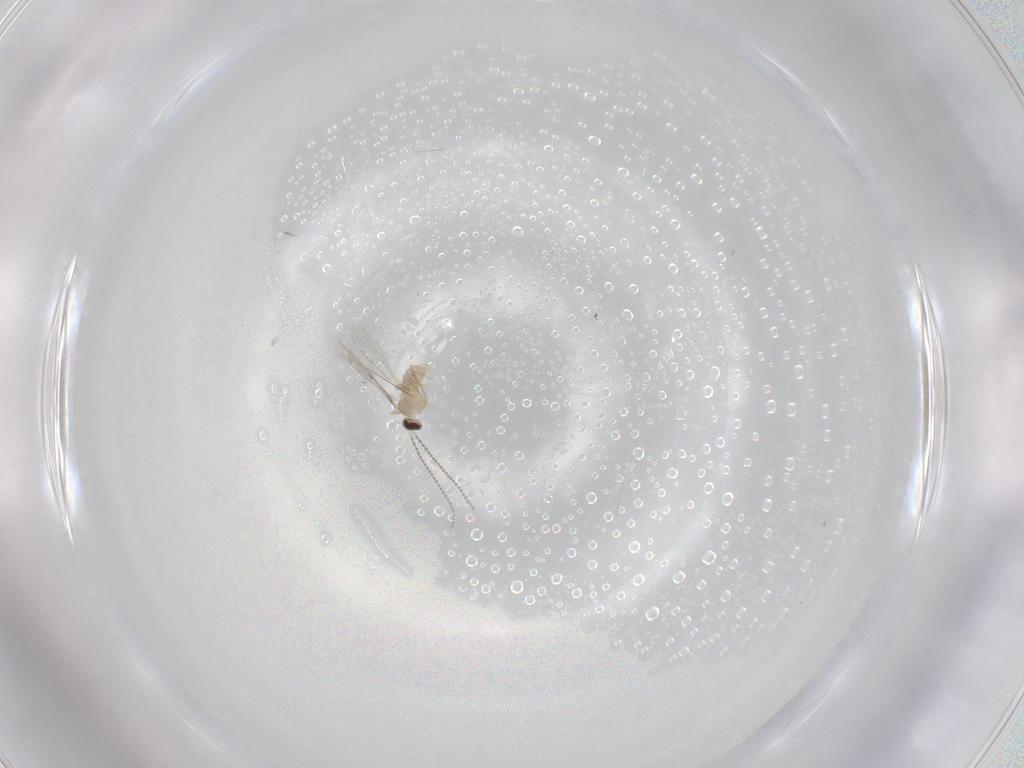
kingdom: Animalia
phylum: Arthropoda
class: Insecta
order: Diptera
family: Cecidomyiidae
